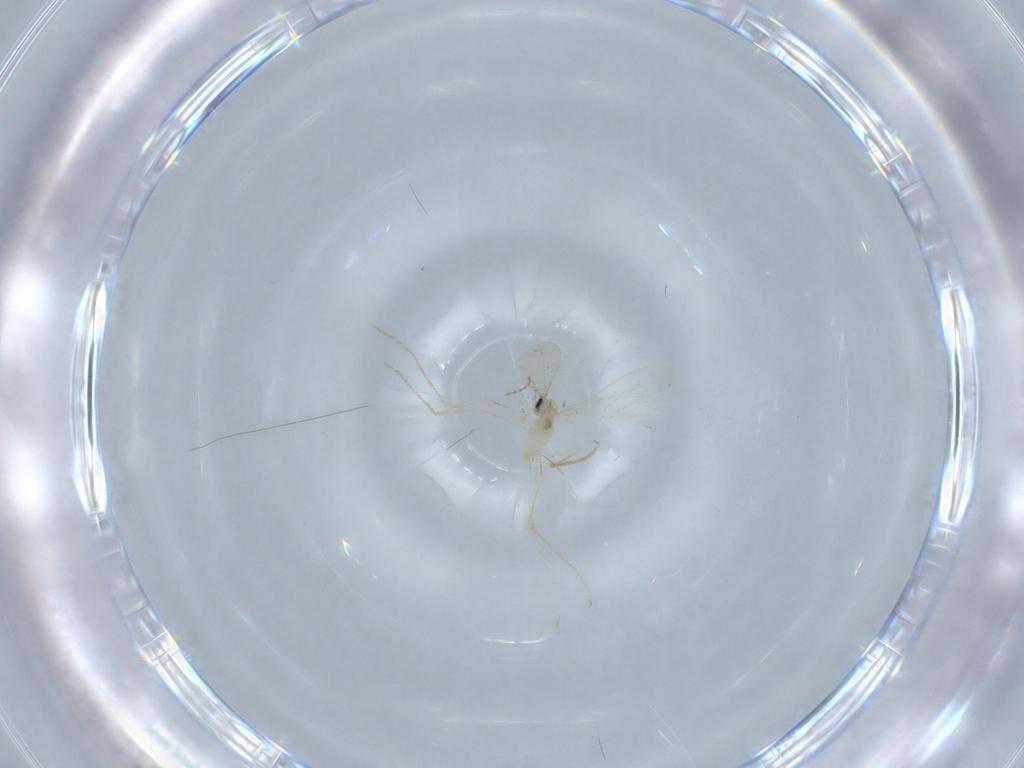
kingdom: Animalia
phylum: Arthropoda
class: Insecta
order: Diptera
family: Cecidomyiidae
